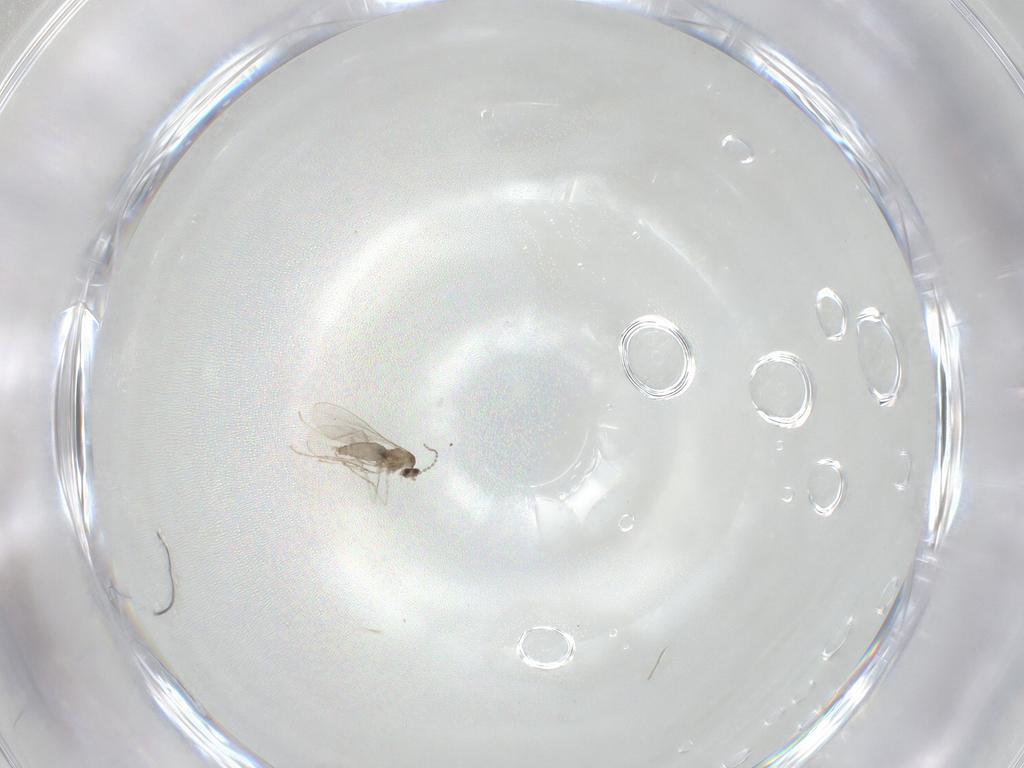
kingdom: Animalia
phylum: Arthropoda
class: Insecta
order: Diptera
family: Cecidomyiidae
